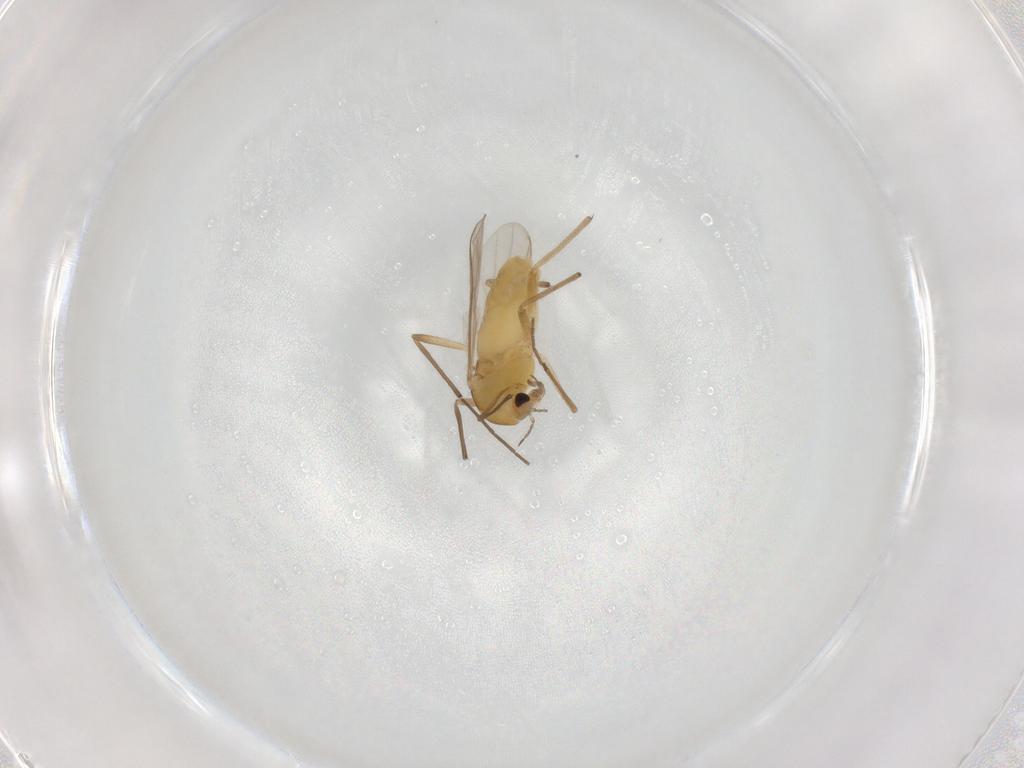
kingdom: Animalia
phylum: Arthropoda
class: Insecta
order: Diptera
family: Chironomidae
